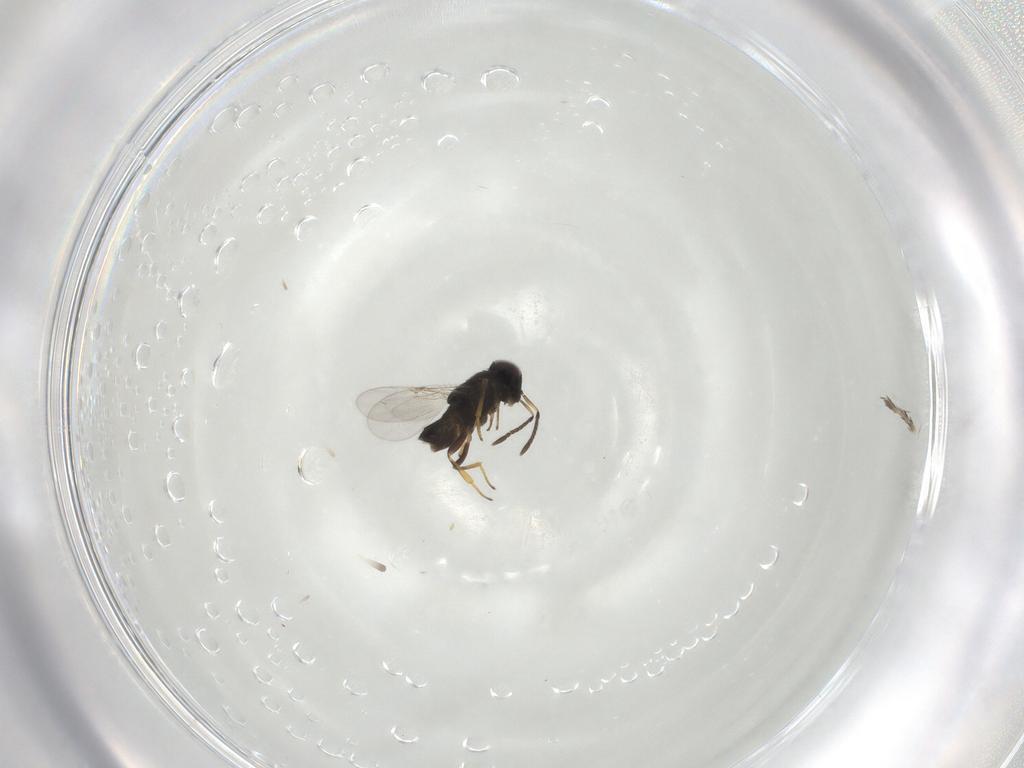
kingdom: Animalia
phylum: Arthropoda
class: Insecta
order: Hymenoptera
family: Encyrtidae
